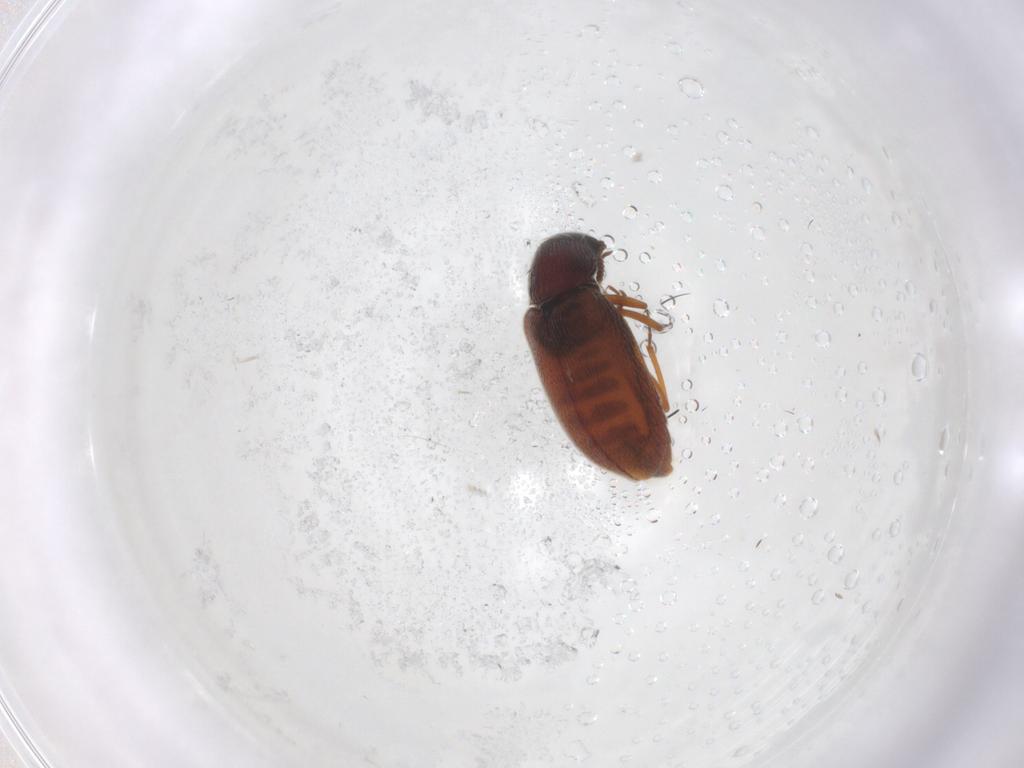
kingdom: Animalia
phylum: Arthropoda
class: Insecta
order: Coleoptera
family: Rhadalidae
